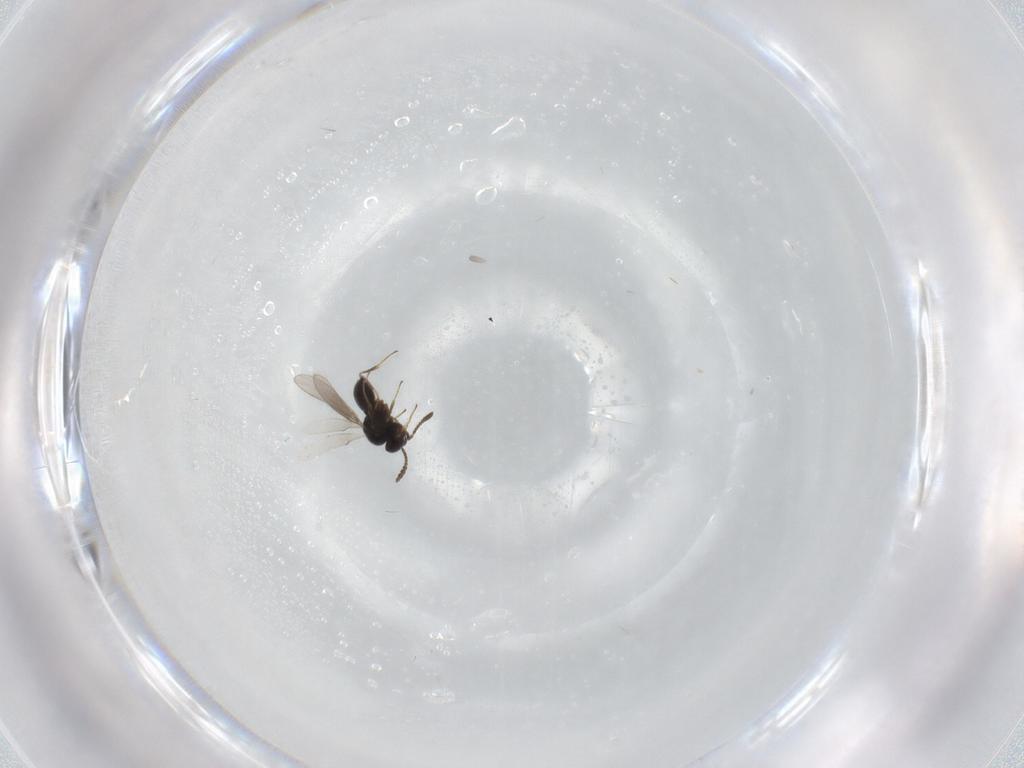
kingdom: Animalia
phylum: Arthropoda
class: Insecta
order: Hymenoptera
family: Scelionidae
